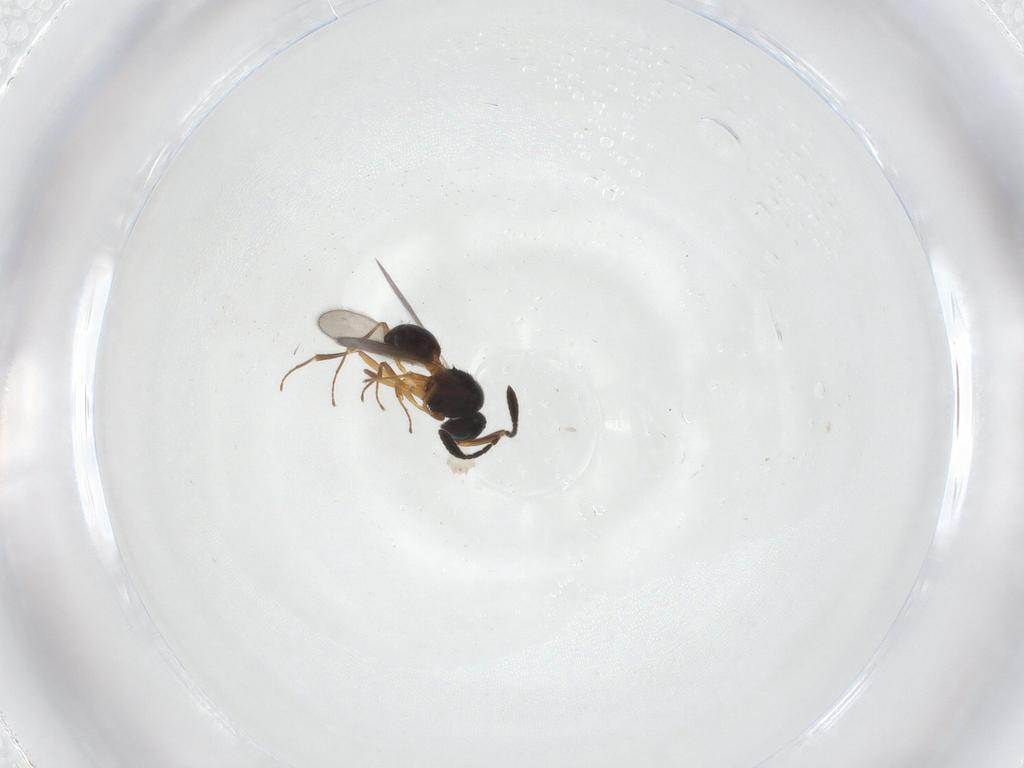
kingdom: Animalia
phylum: Arthropoda
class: Insecta
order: Hymenoptera
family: Scelionidae
